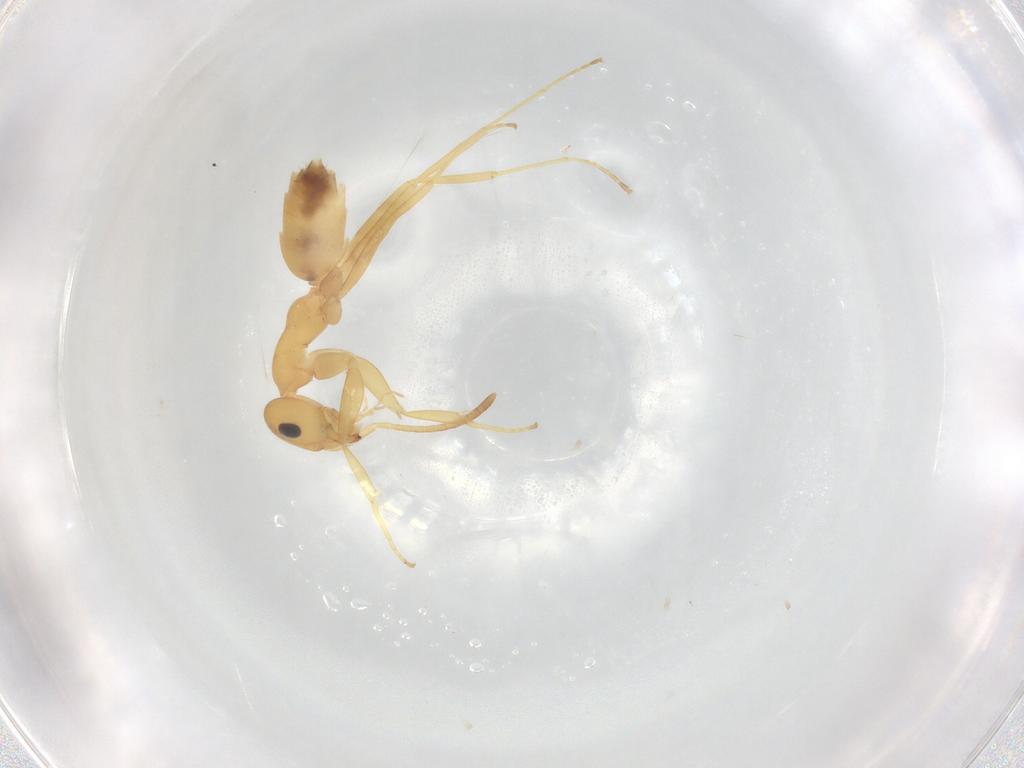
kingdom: Animalia
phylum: Arthropoda
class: Insecta
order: Hymenoptera
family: Formicidae
